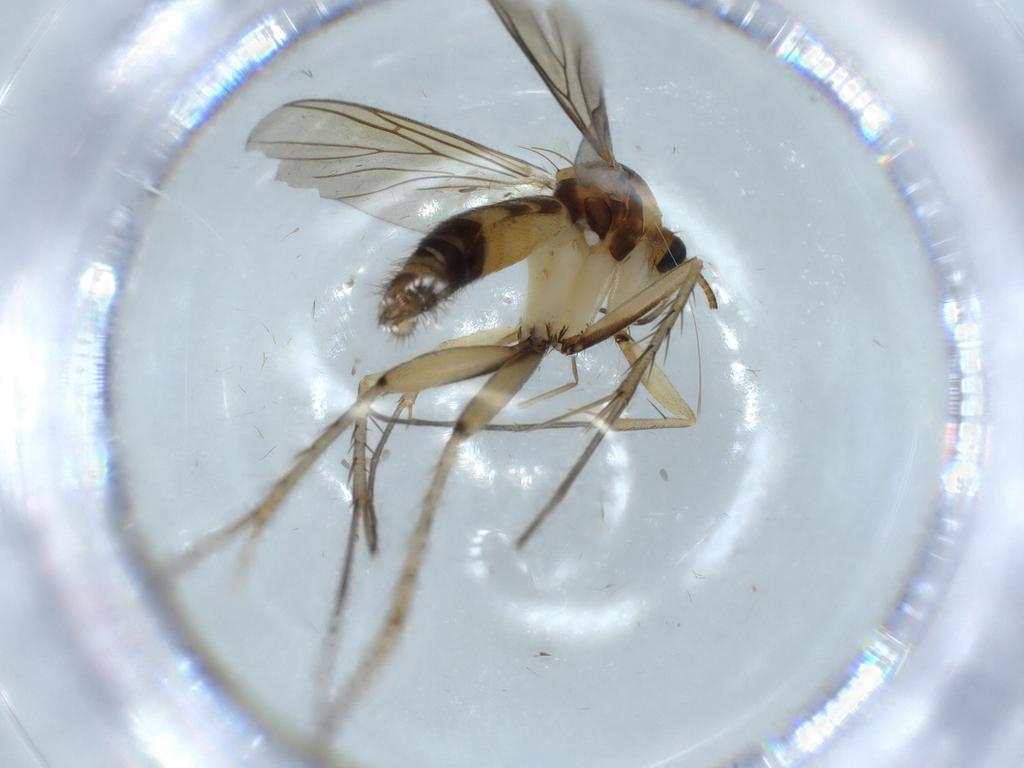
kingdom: Animalia
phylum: Arthropoda
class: Insecta
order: Diptera
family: Mycetophilidae
